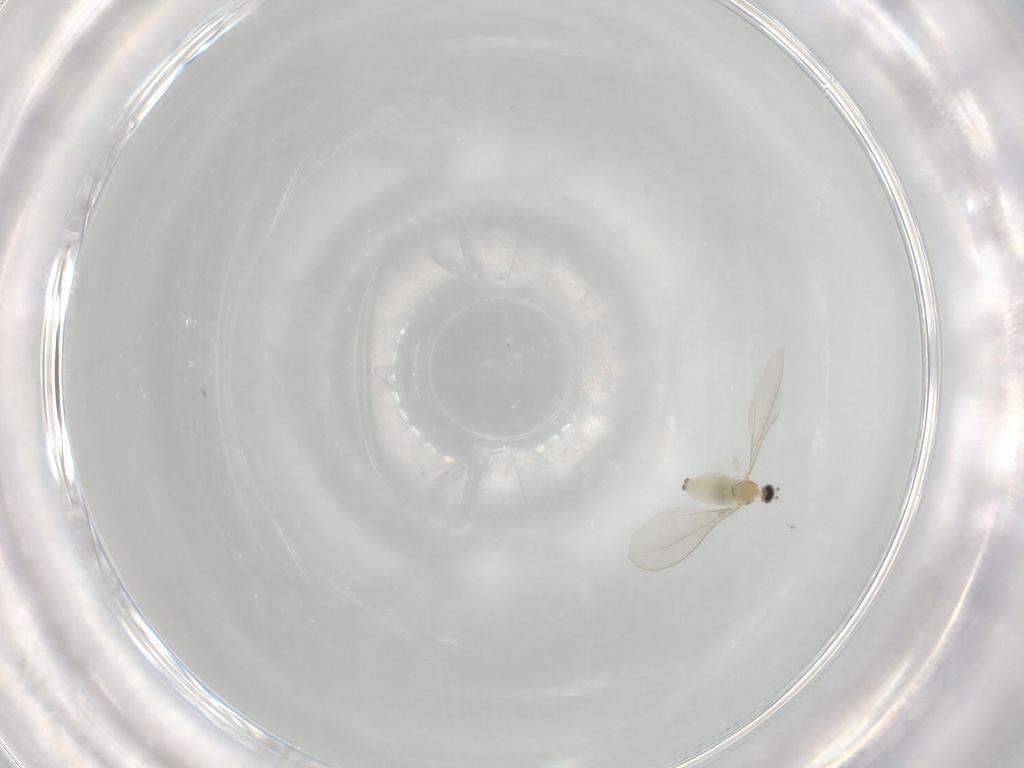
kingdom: Animalia
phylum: Arthropoda
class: Insecta
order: Diptera
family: Cecidomyiidae
